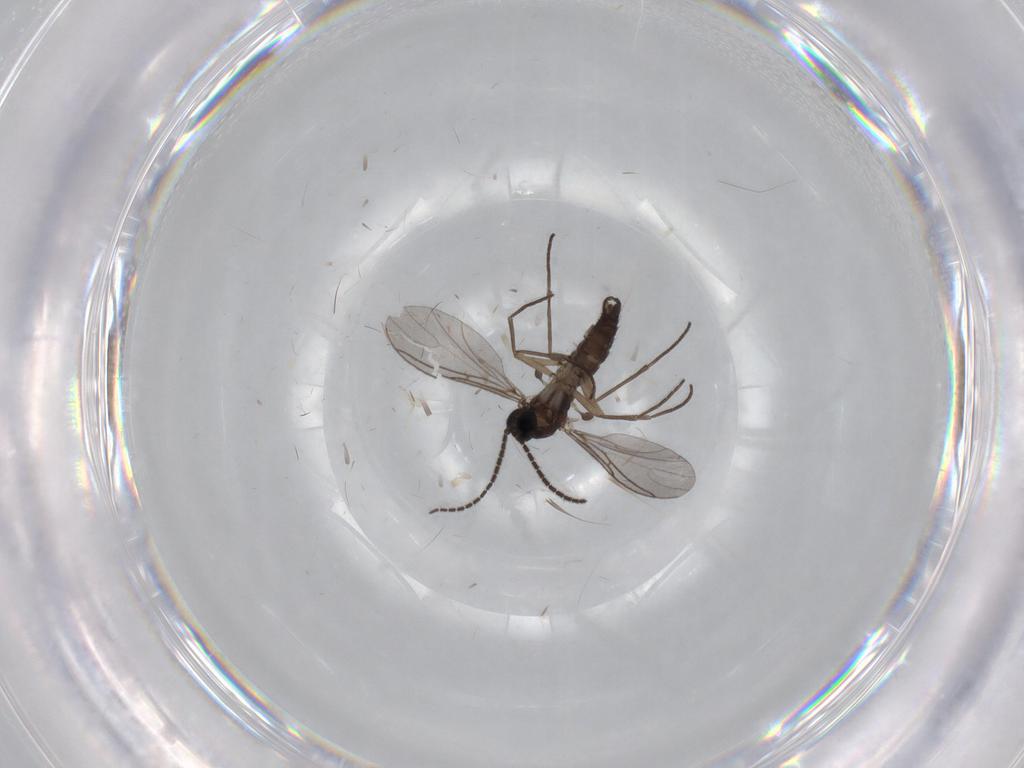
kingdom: Animalia
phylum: Arthropoda
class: Insecta
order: Diptera
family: Sciaridae
